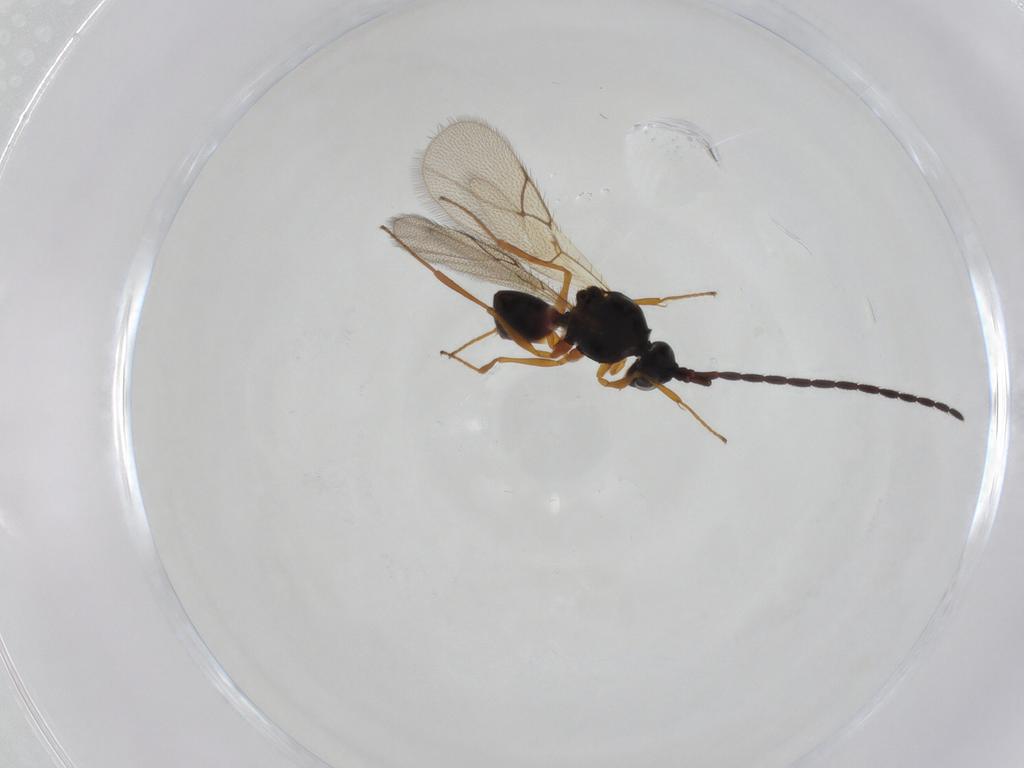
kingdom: Animalia
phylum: Arthropoda
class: Insecta
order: Hymenoptera
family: Figitidae
